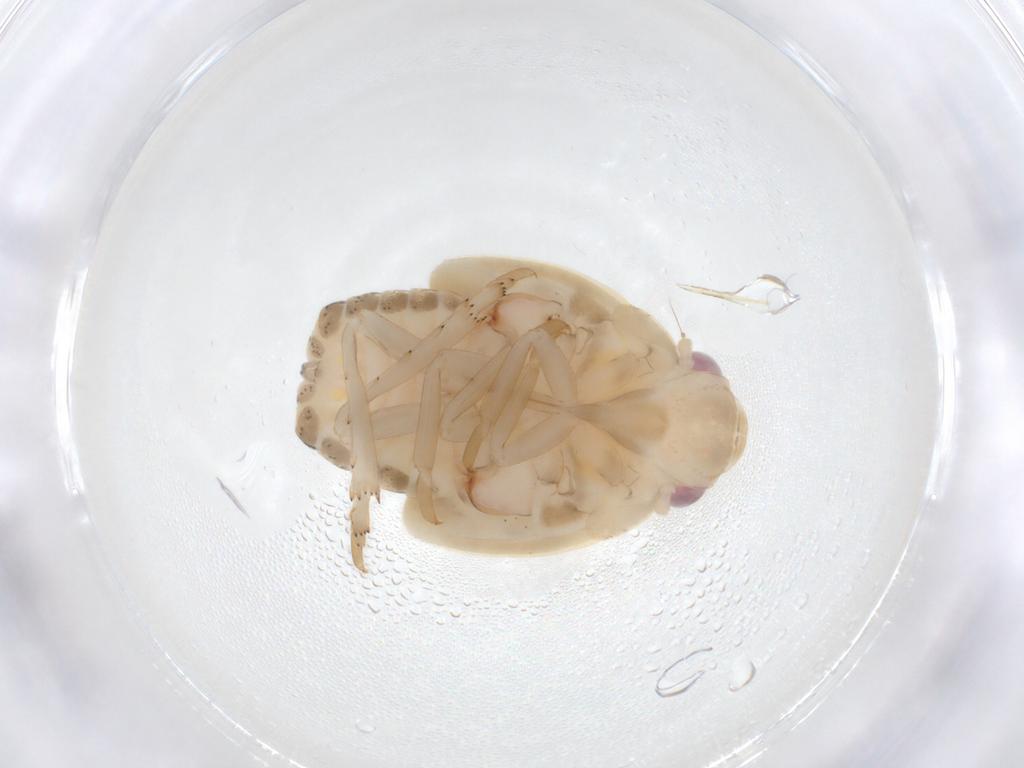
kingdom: Animalia
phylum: Arthropoda
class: Insecta
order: Hemiptera
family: Flatidae
